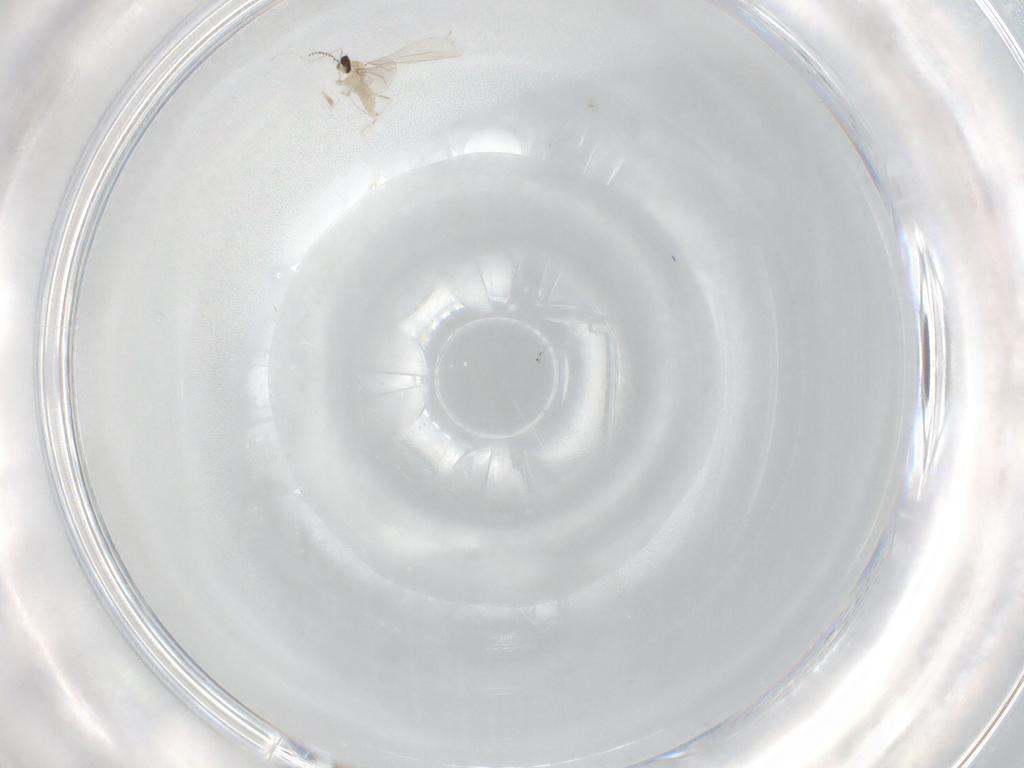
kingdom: Animalia
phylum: Arthropoda
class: Insecta
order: Diptera
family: Cecidomyiidae
